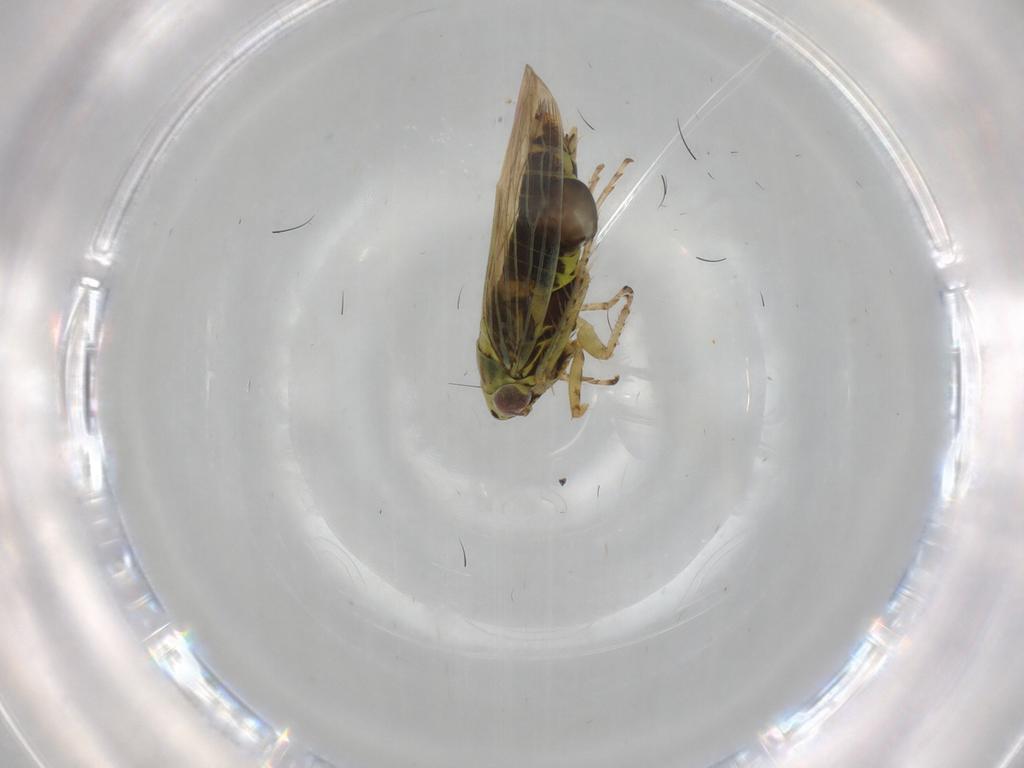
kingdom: Animalia
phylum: Arthropoda
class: Insecta
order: Hemiptera
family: Cicadellidae
